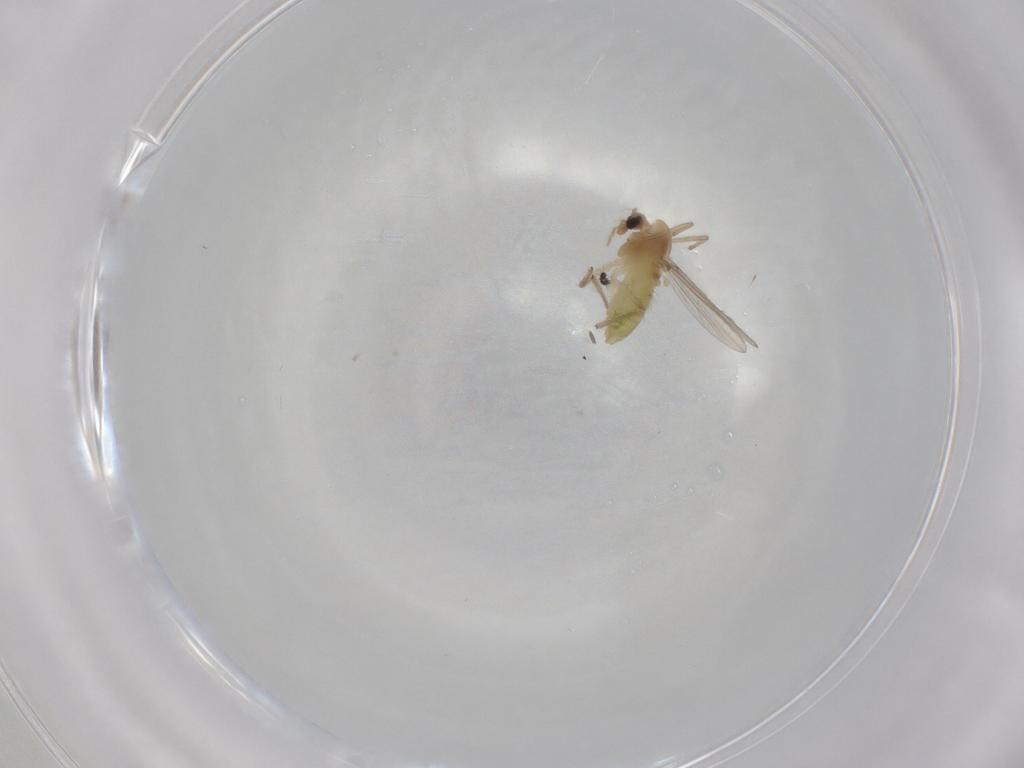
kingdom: Animalia
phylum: Arthropoda
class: Insecta
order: Diptera
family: Chironomidae
